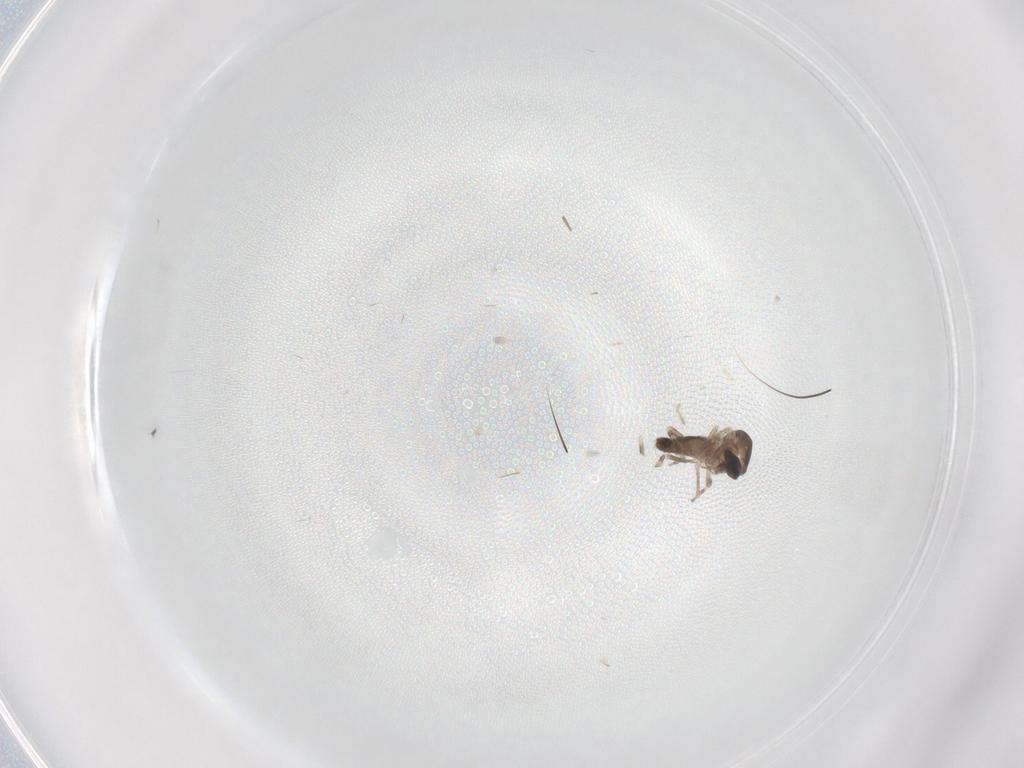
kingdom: Animalia
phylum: Arthropoda
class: Insecta
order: Diptera
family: Ceratopogonidae
